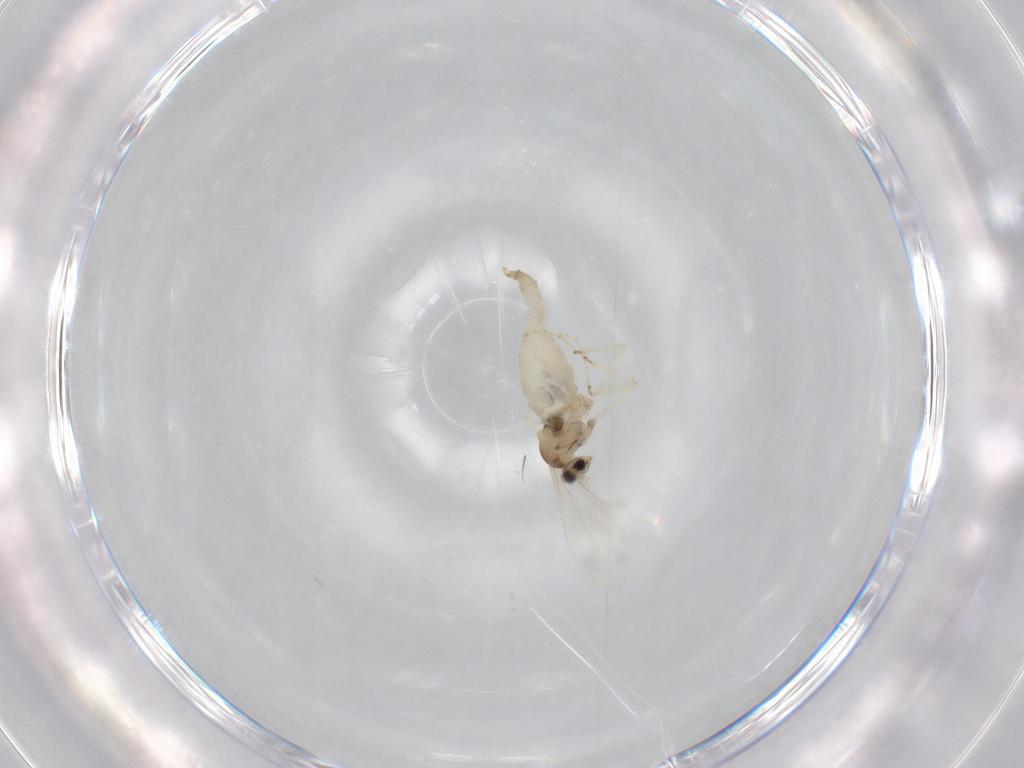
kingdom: Animalia
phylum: Arthropoda
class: Insecta
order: Diptera
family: Cecidomyiidae
